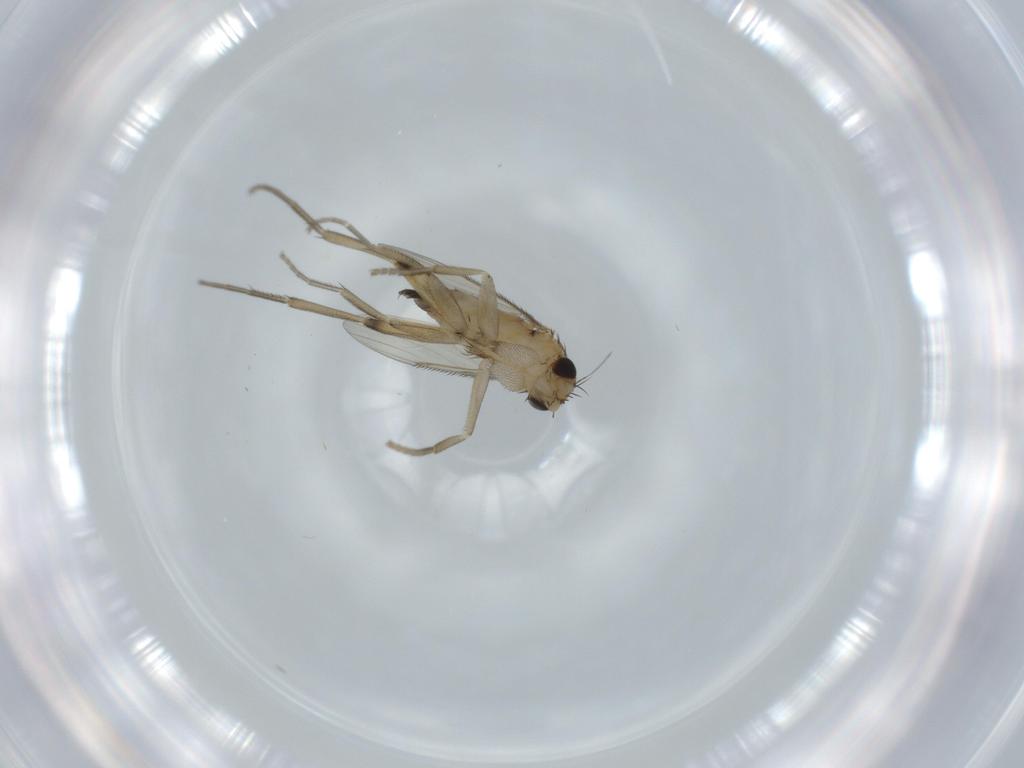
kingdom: Animalia
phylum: Arthropoda
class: Insecta
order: Diptera
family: Phoridae
